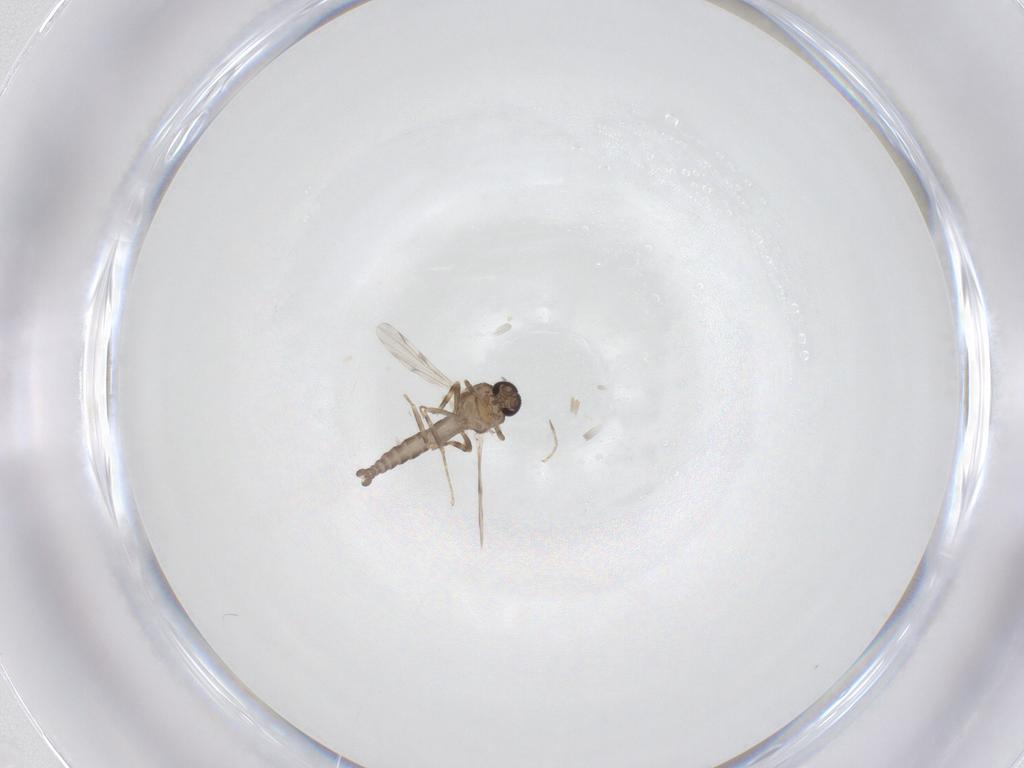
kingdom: Animalia
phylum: Arthropoda
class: Insecta
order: Diptera
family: Ceratopogonidae
